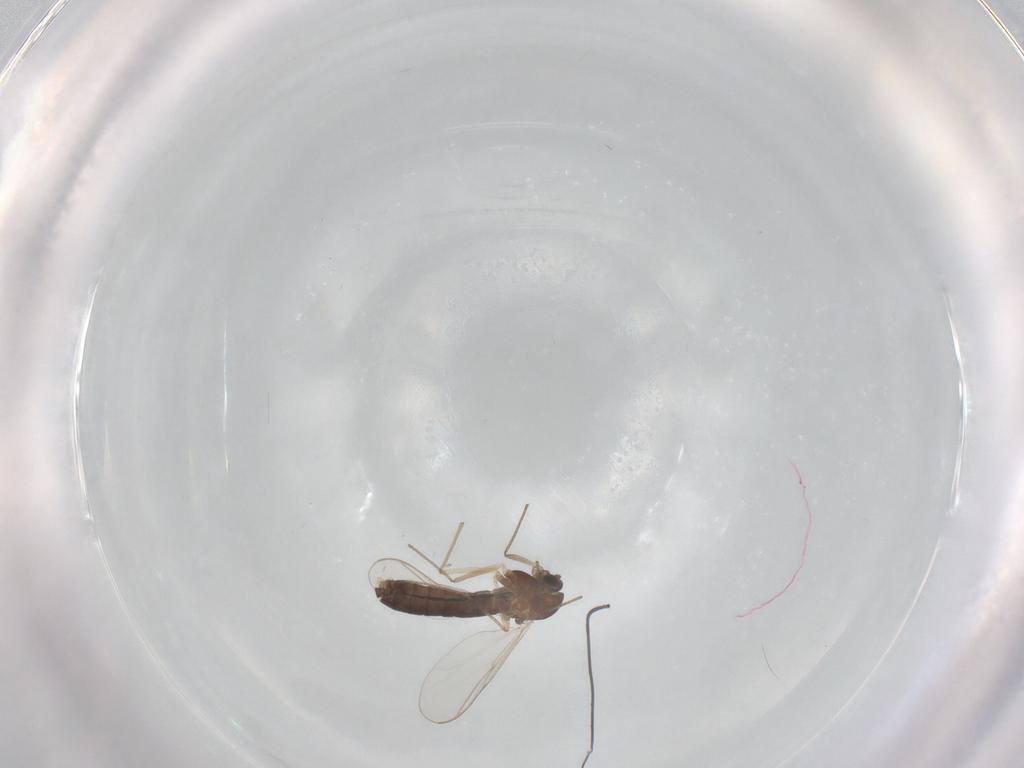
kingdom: Animalia
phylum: Arthropoda
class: Insecta
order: Diptera
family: Chironomidae
